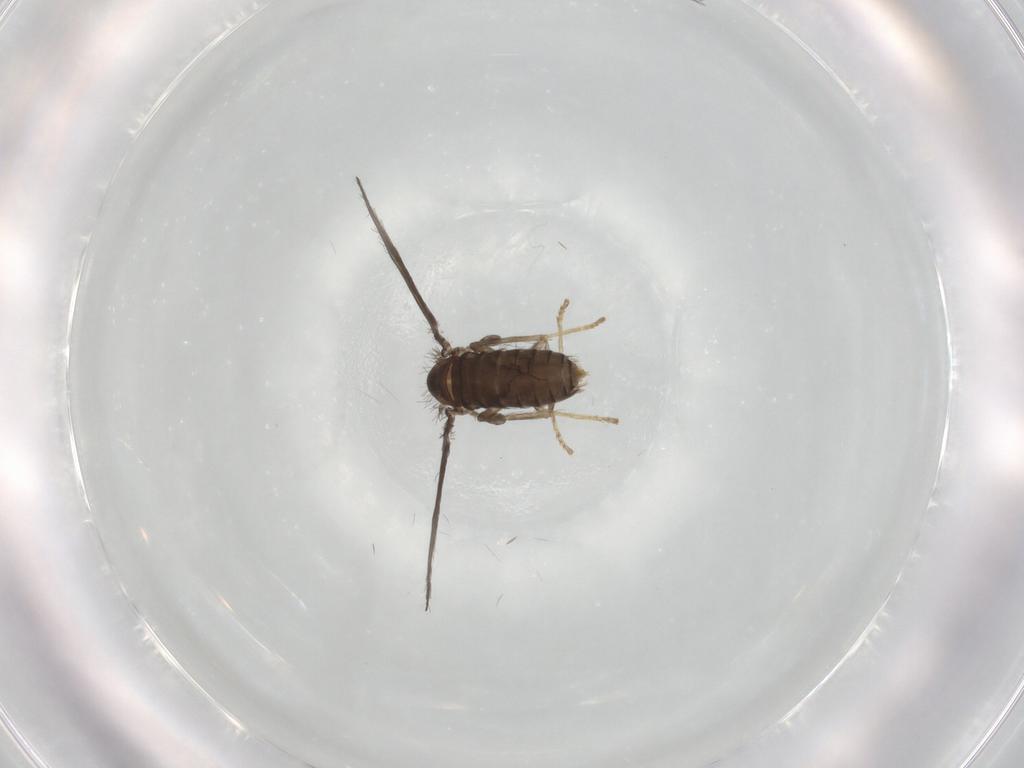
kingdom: Animalia
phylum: Arthropoda
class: Insecta
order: Diptera
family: Psychodidae
